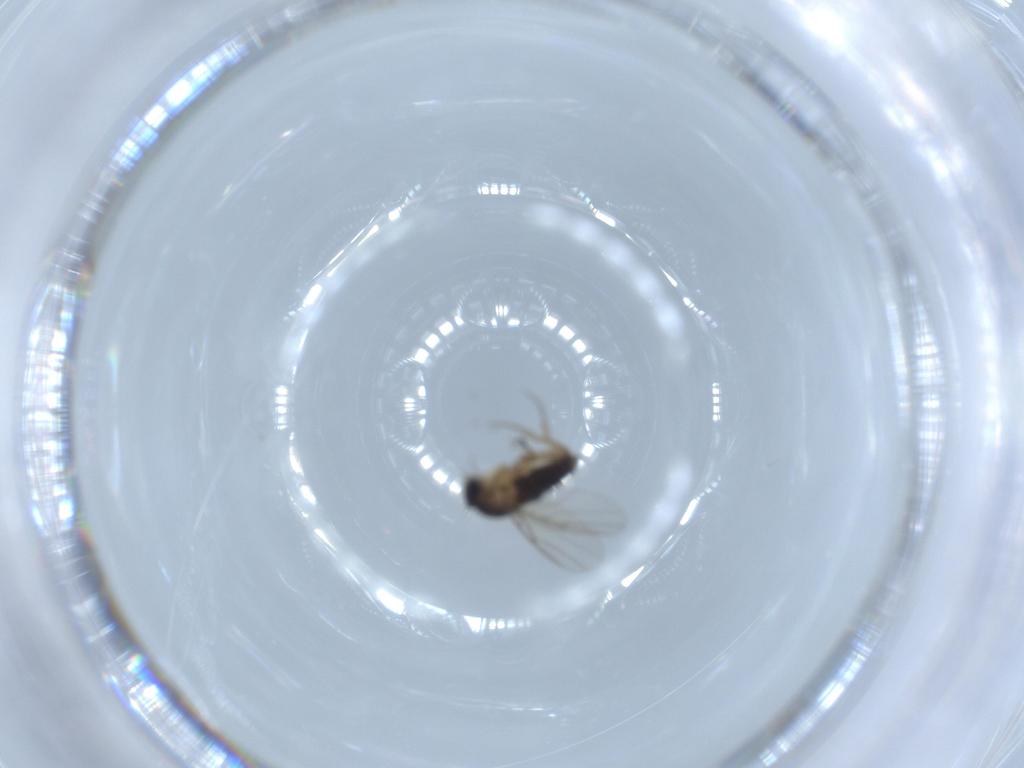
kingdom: Animalia
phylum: Arthropoda
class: Insecta
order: Diptera
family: Phoridae
